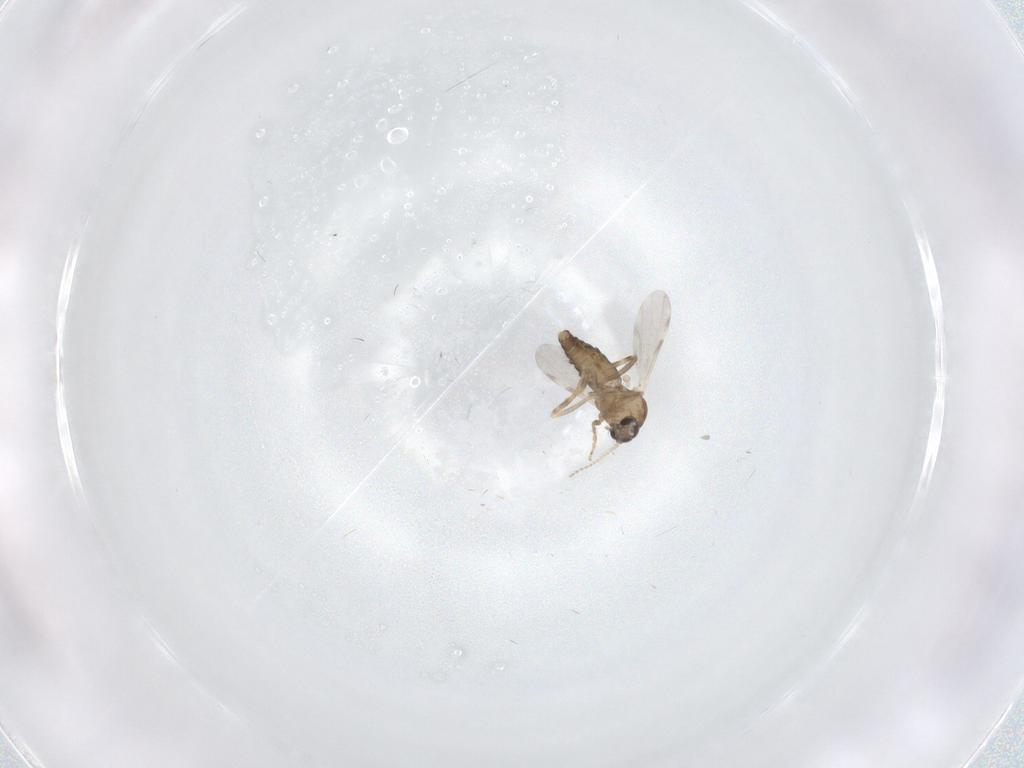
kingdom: Animalia
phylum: Arthropoda
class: Insecta
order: Diptera
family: Ceratopogonidae
